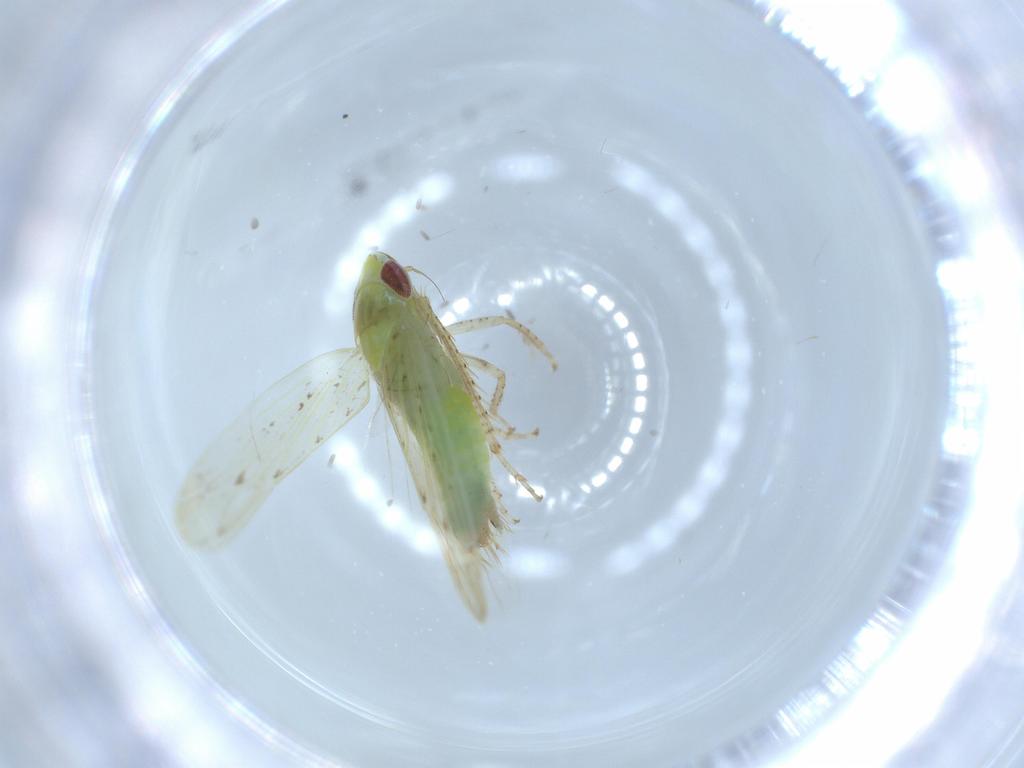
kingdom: Animalia
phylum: Arthropoda
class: Insecta
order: Hemiptera
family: Cicadellidae
